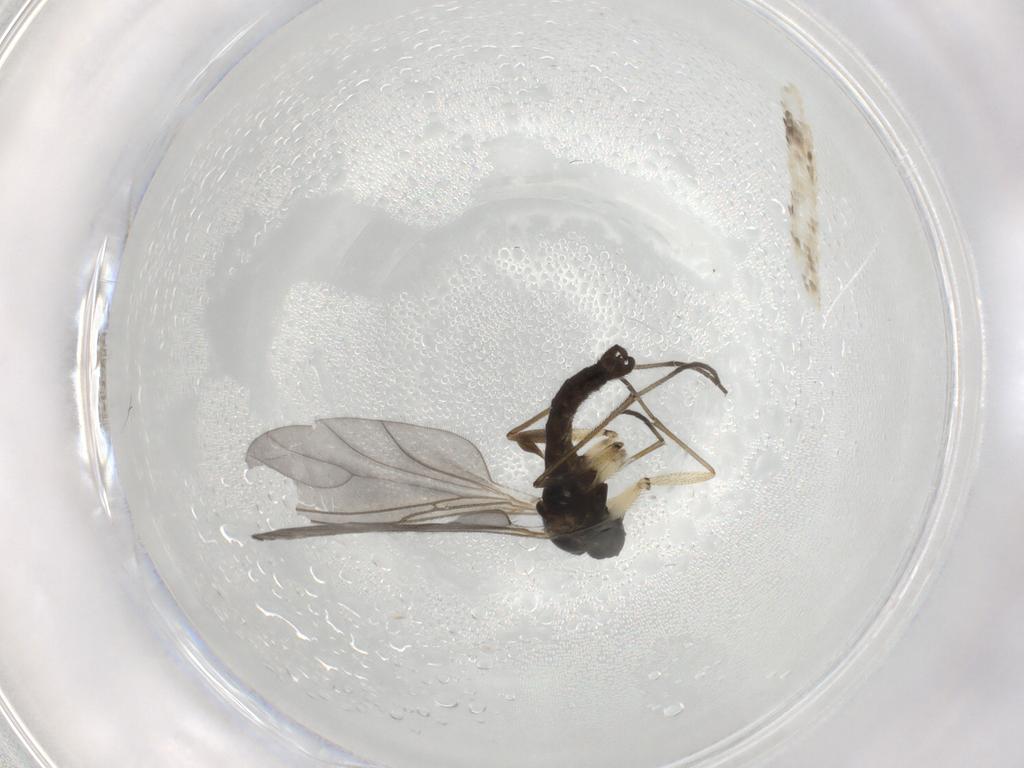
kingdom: Animalia
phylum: Arthropoda
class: Insecta
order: Diptera
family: Sciaridae
